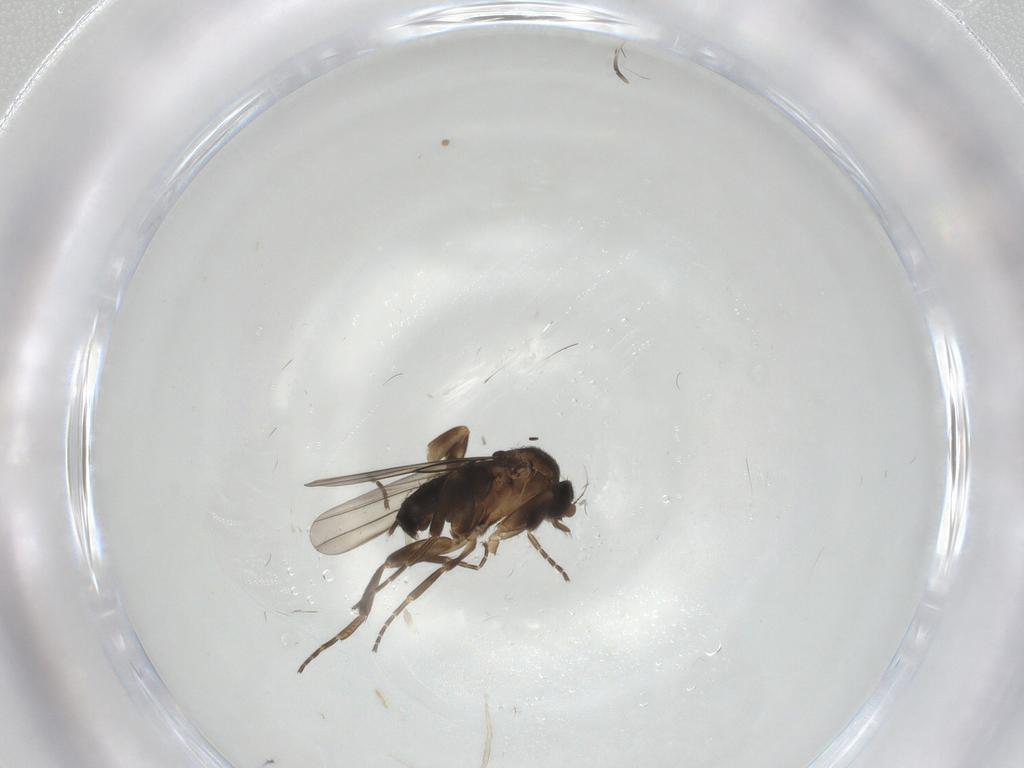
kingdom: Animalia
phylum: Arthropoda
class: Insecta
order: Diptera
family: Phoridae
